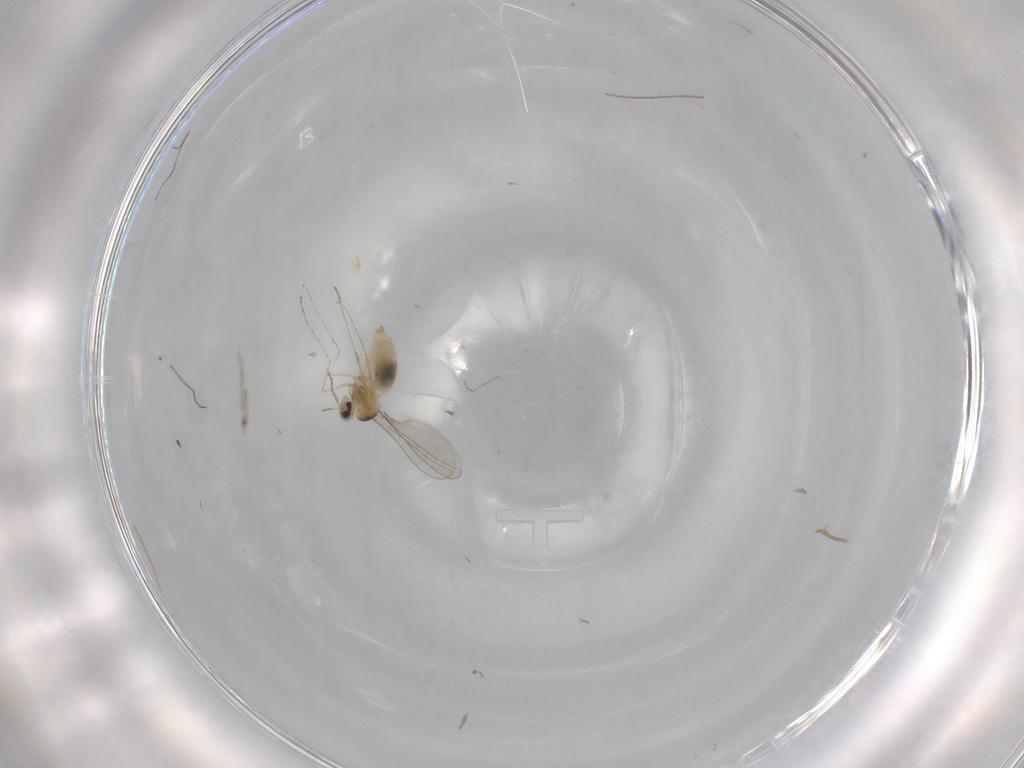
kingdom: Animalia
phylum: Arthropoda
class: Insecta
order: Diptera
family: Cecidomyiidae
